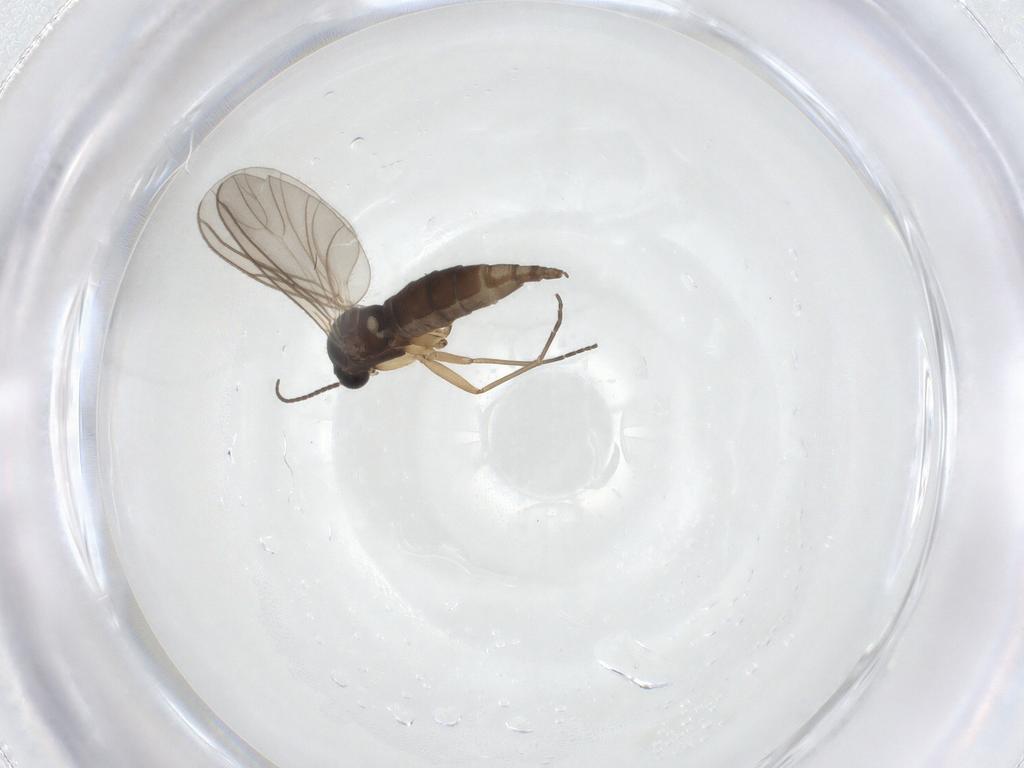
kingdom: Animalia
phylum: Arthropoda
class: Insecta
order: Diptera
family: Sciaridae
